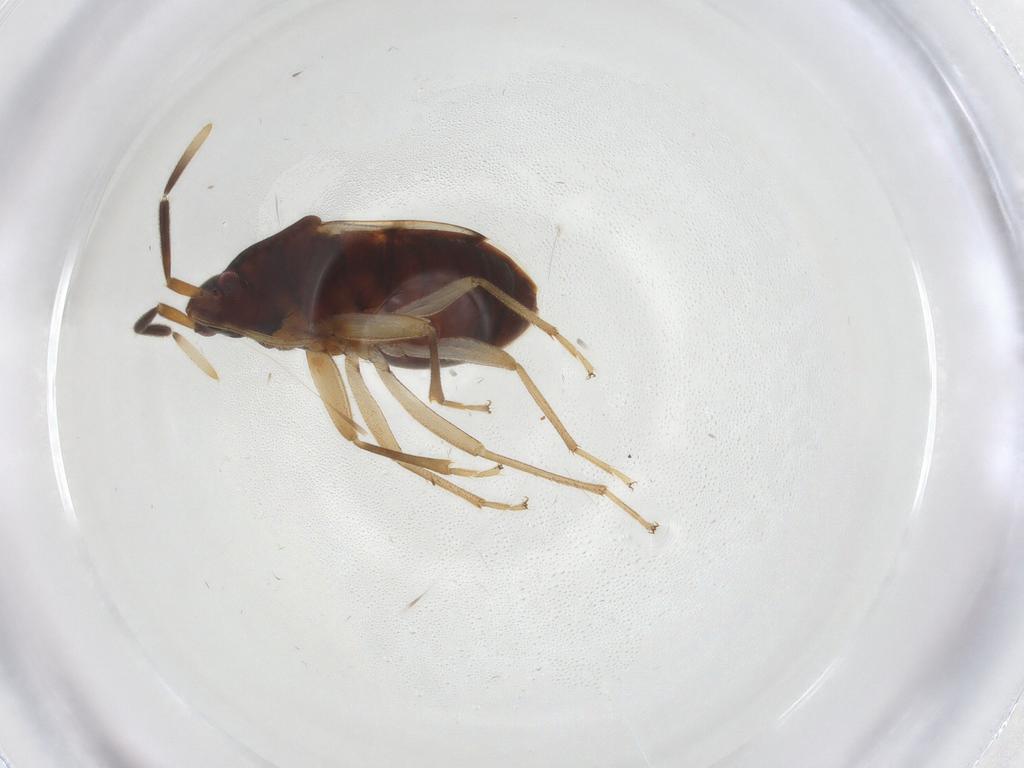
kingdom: Animalia
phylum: Arthropoda
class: Insecta
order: Hemiptera
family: Rhyparochromidae
